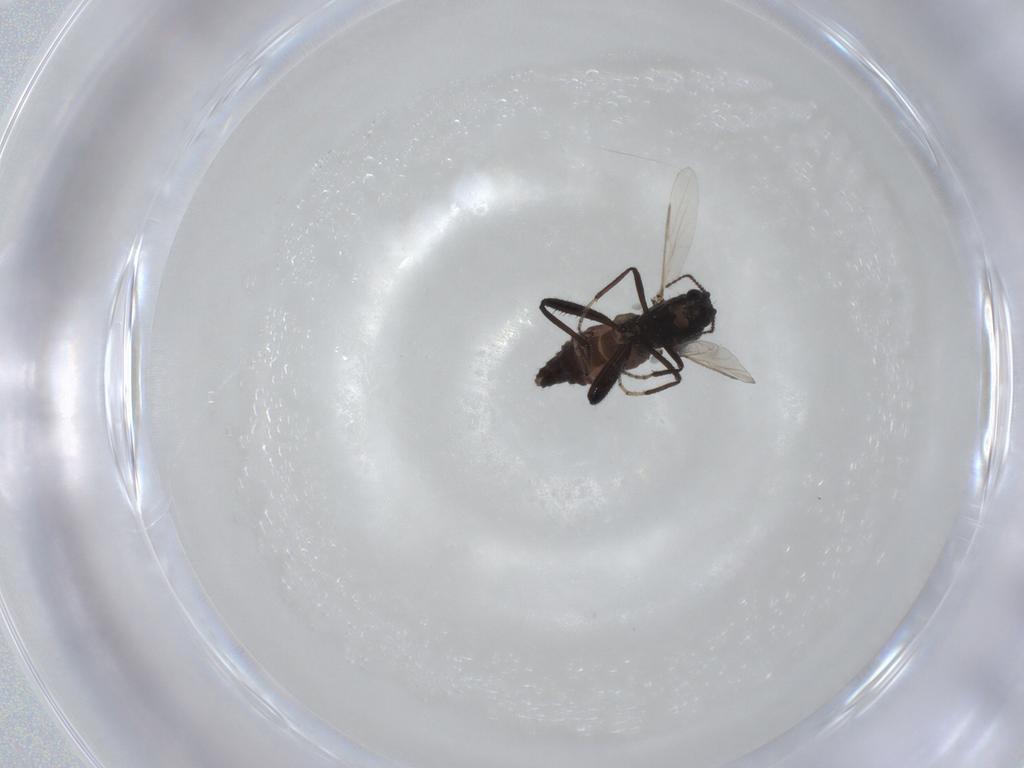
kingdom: Animalia
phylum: Arthropoda
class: Insecta
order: Diptera
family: Ceratopogonidae
